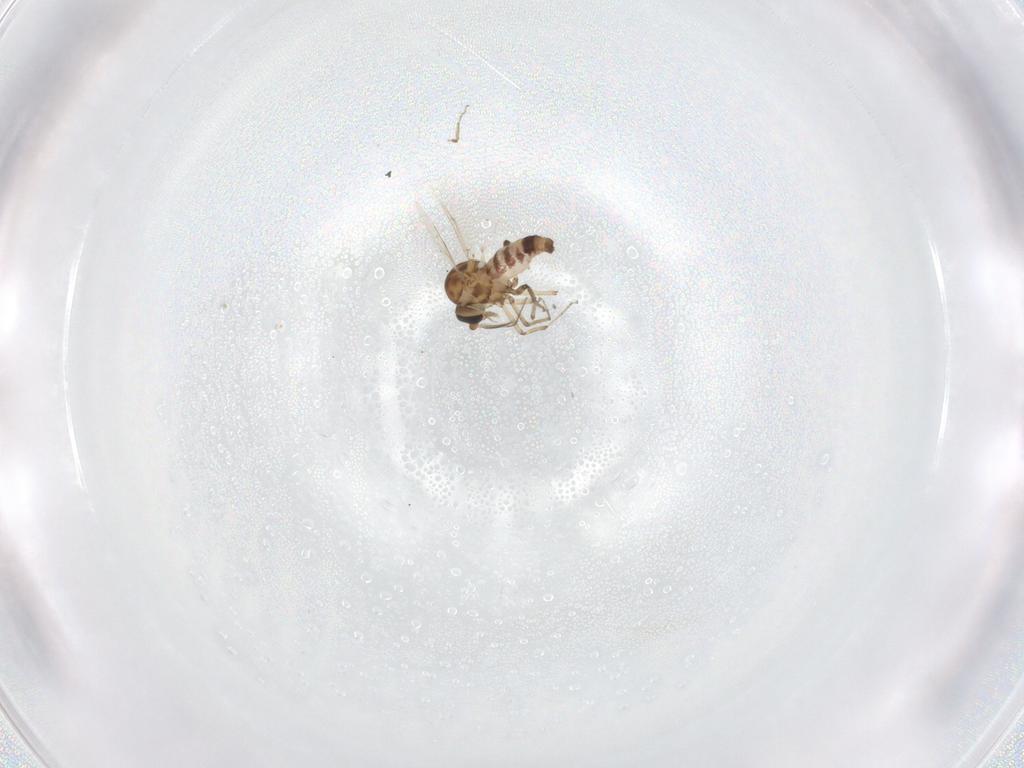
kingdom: Animalia
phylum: Arthropoda
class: Insecta
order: Diptera
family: Ceratopogonidae
